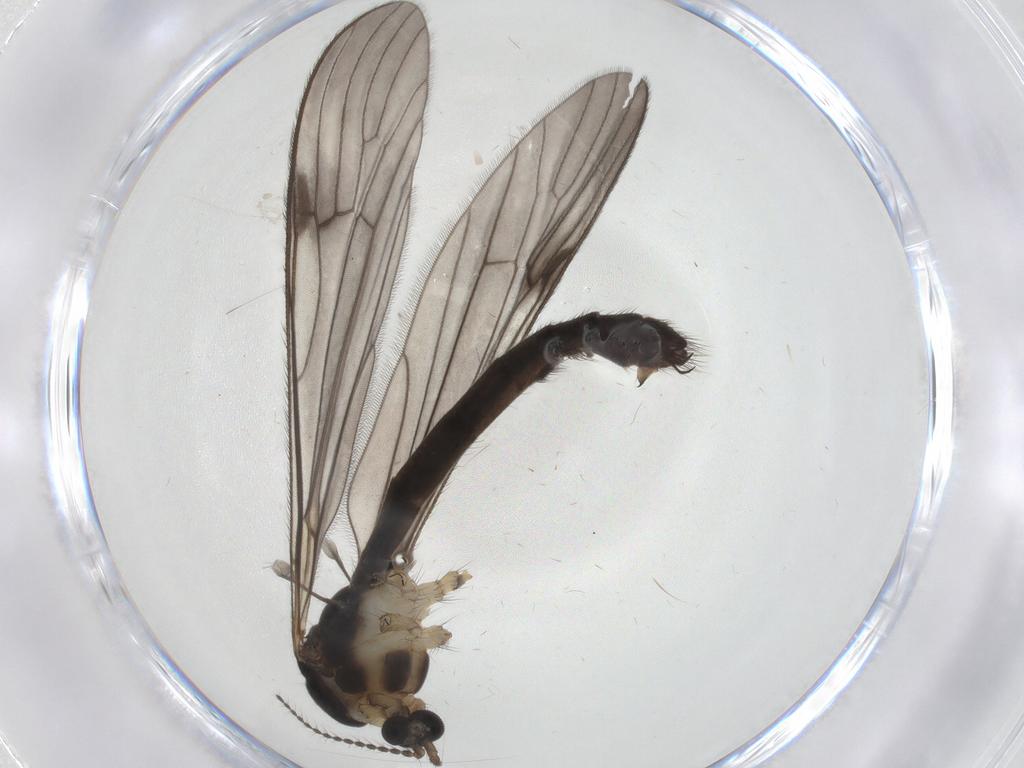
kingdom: Animalia
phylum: Arthropoda
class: Insecta
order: Diptera
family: Limoniidae
